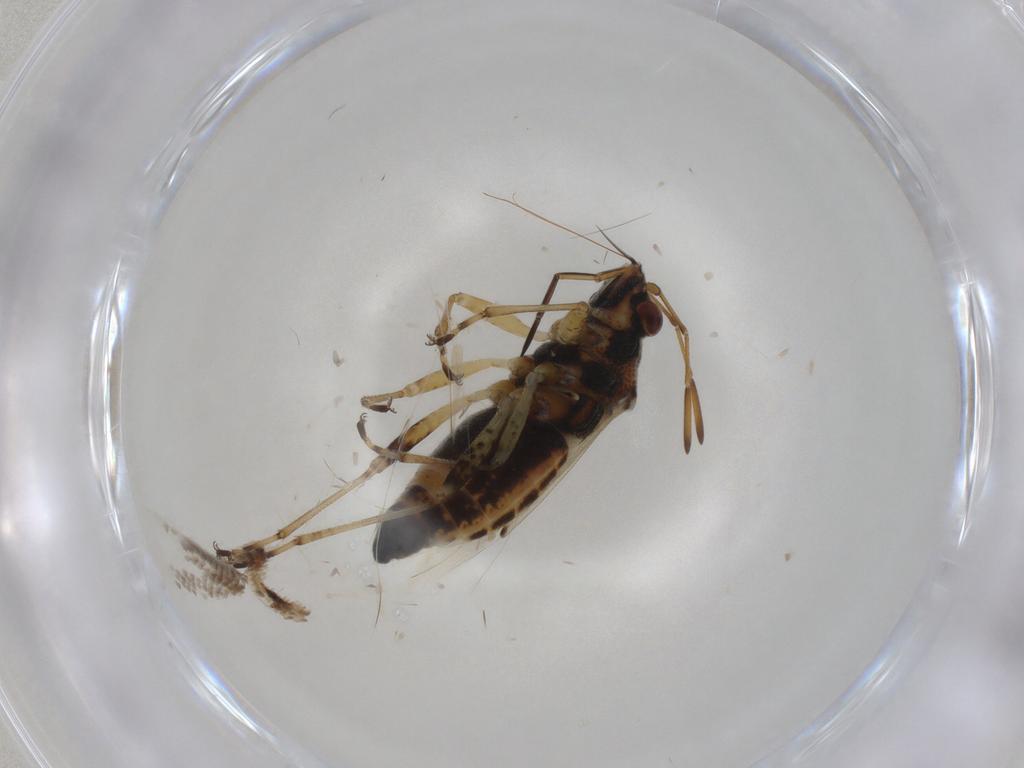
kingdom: Animalia
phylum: Arthropoda
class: Insecta
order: Hemiptera
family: Lygaeidae
